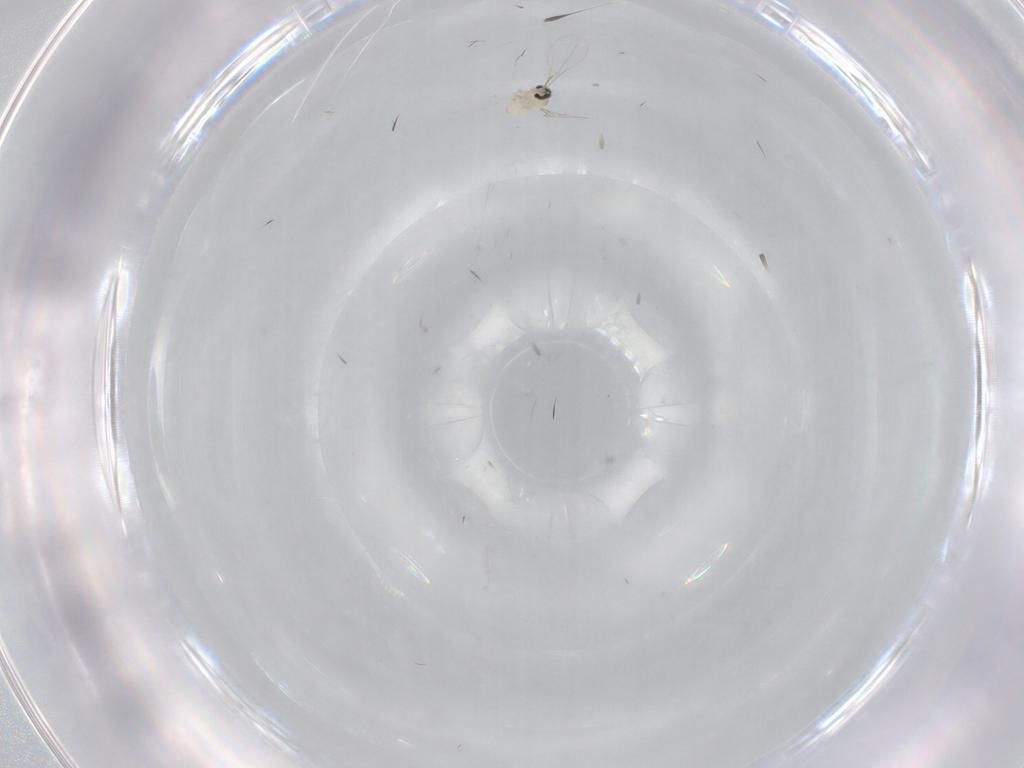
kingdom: Animalia
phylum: Arthropoda
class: Insecta
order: Diptera
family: Cecidomyiidae
